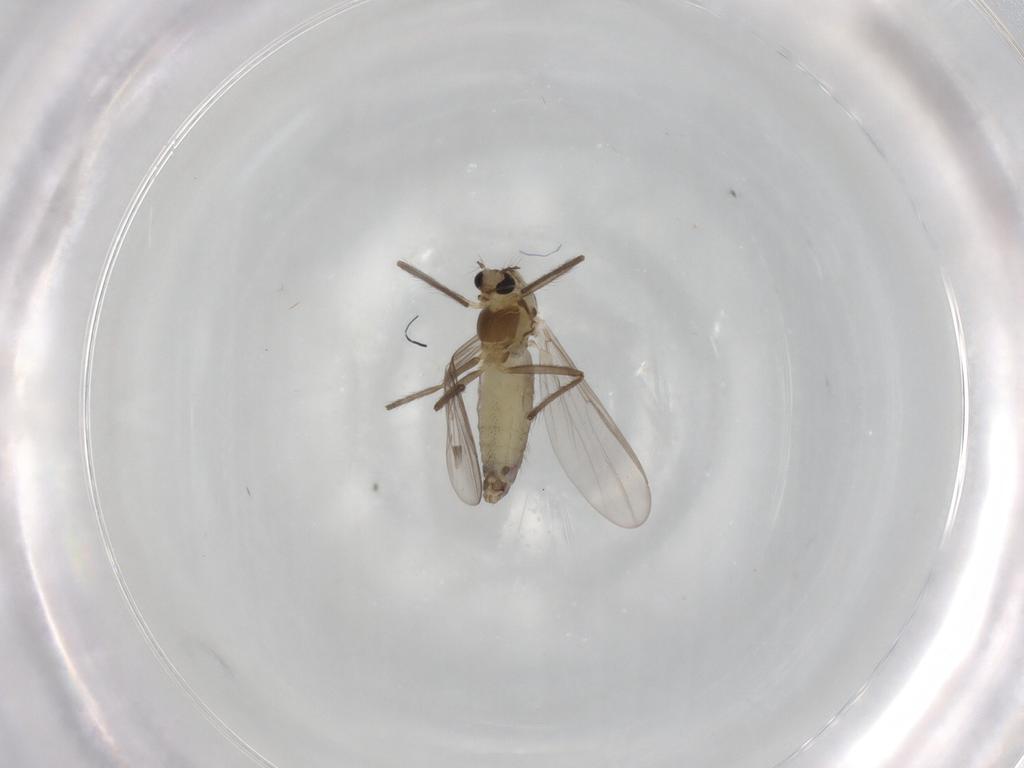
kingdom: Animalia
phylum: Arthropoda
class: Insecta
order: Diptera
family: Chironomidae
